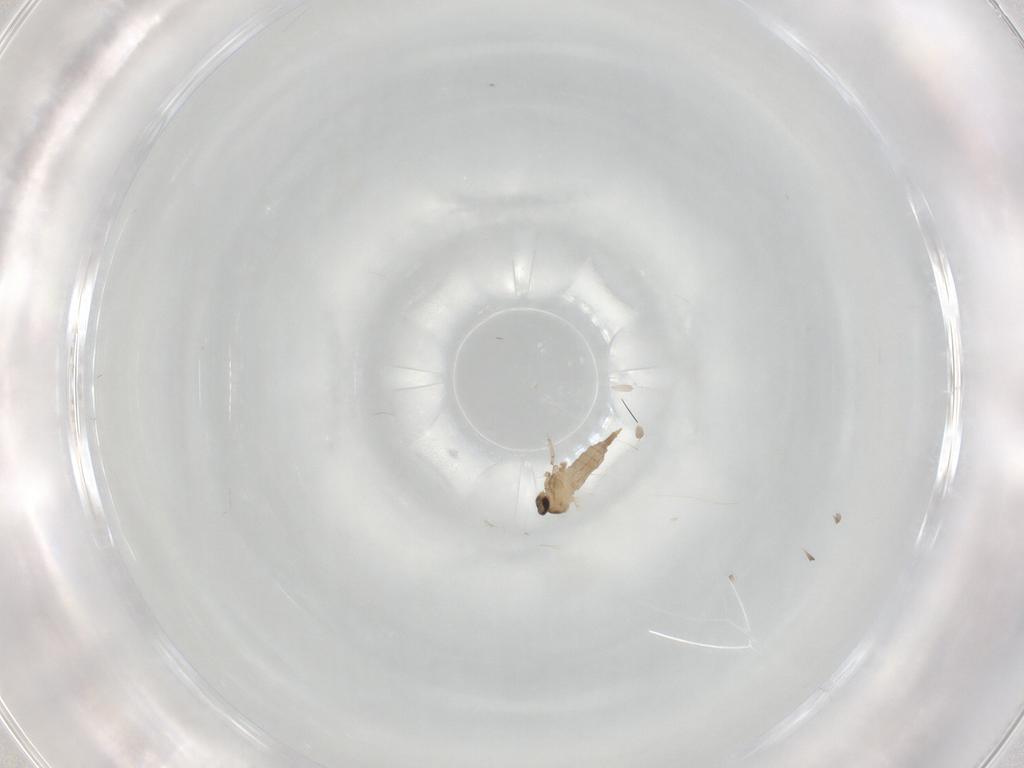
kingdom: Animalia
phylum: Arthropoda
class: Insecta
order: Diptera
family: Cecidomyiidae
